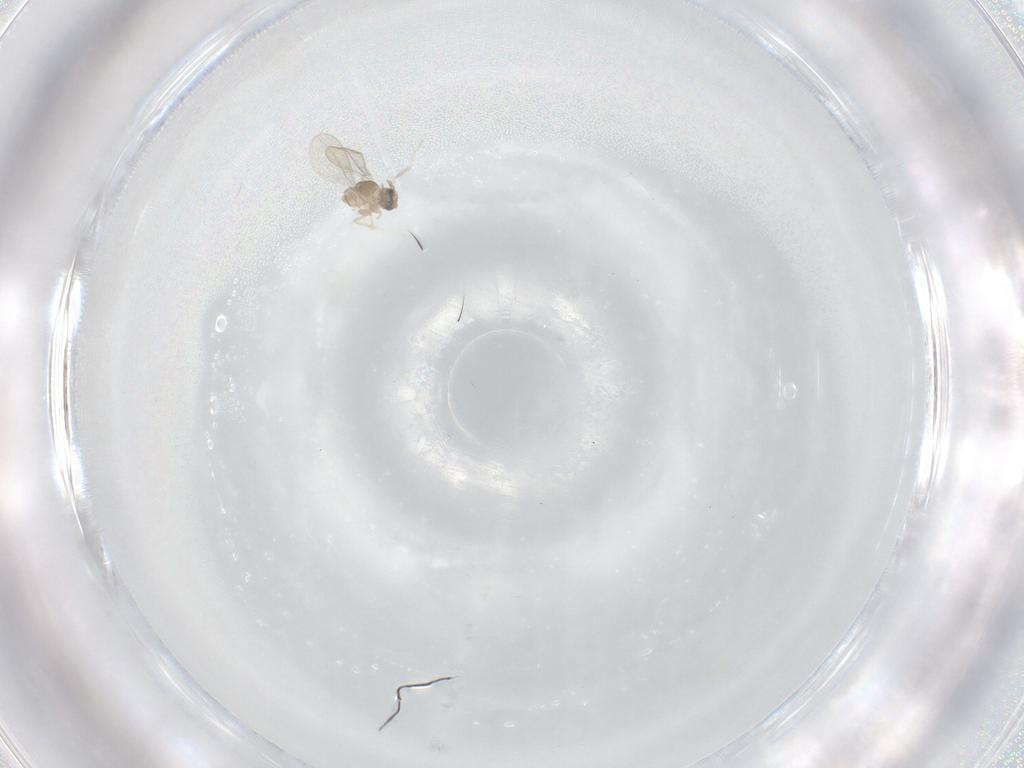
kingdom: Animalia
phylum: Arthropoda
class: Insecta
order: Diptera
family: Cecidomyiidae
